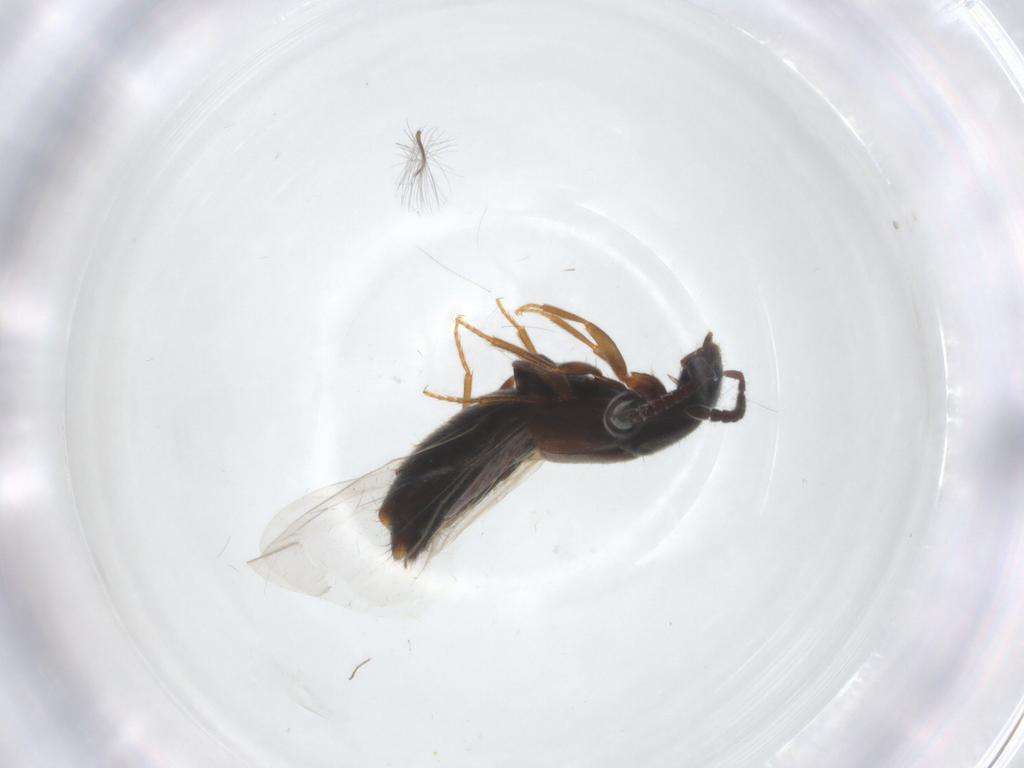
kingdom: Animalia
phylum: Arthropoda
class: Insecta
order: Coleoptera
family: Staphylinidae
